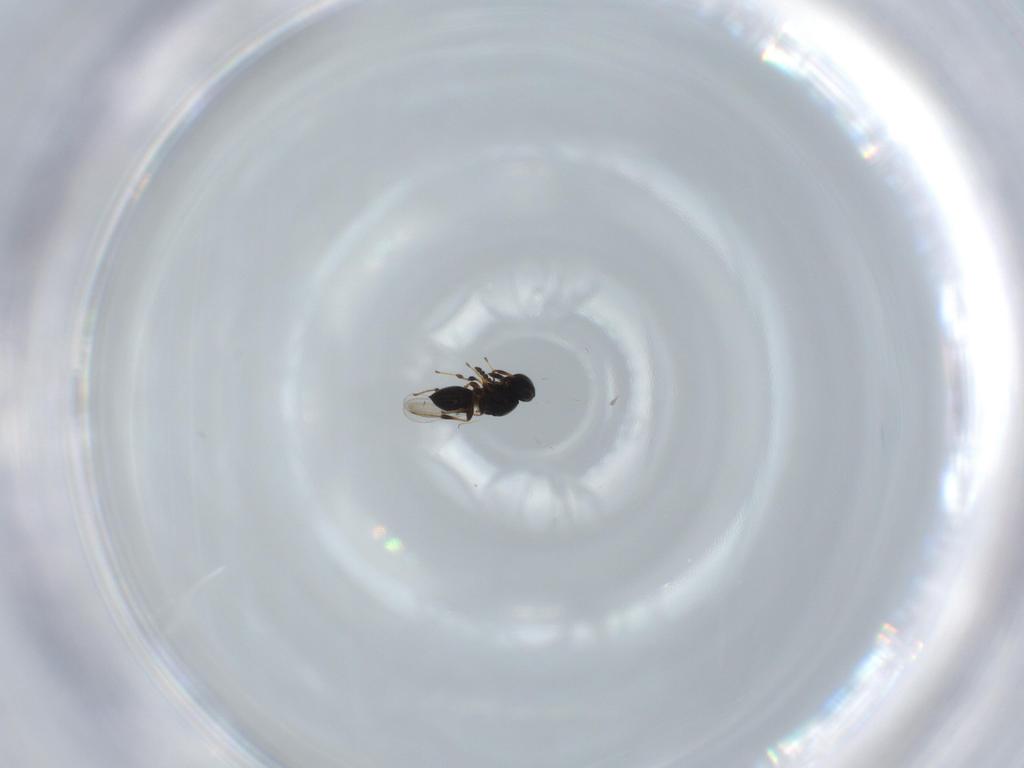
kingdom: Animalia
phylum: Arthropoda
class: Insecta
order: Hymenoptera
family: Platygastridae
